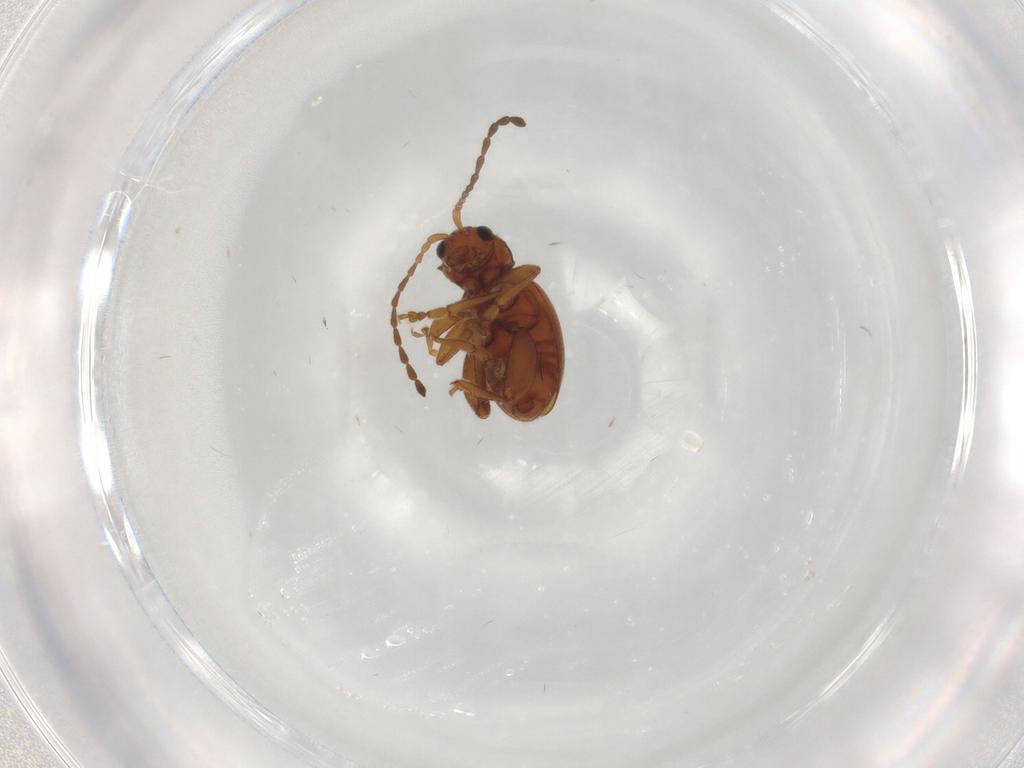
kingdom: Animalia
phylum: Arthropoda
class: Insecta
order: Coleoptera
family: Chrysomelidae
